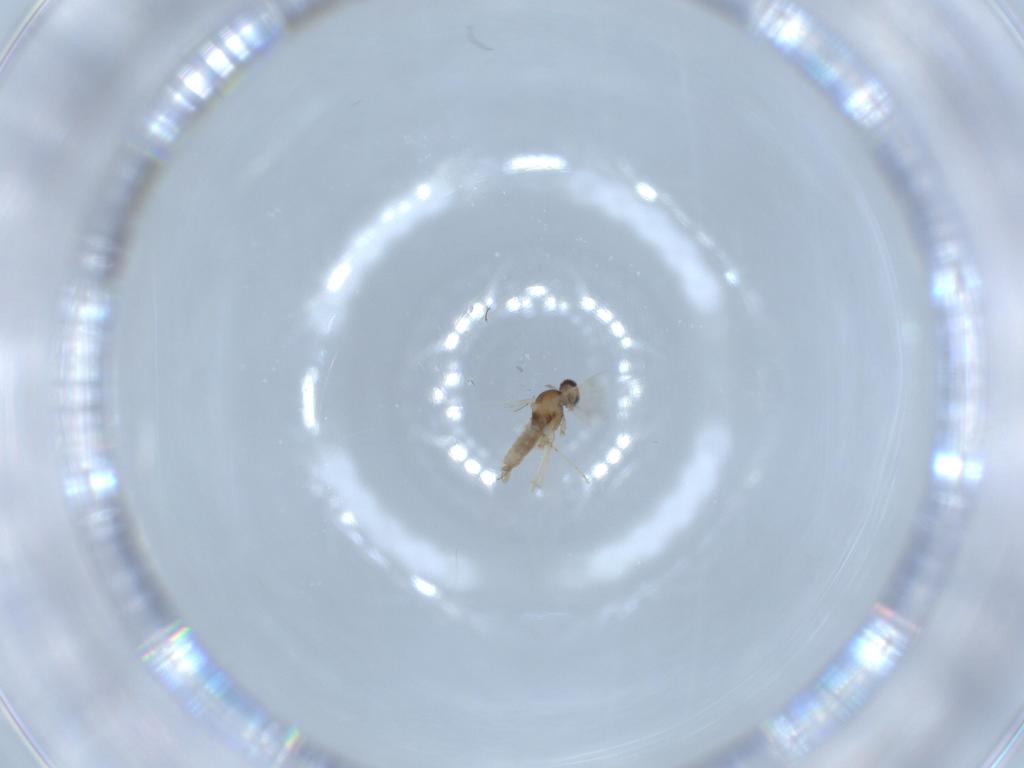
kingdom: Animalia
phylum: Arthropoda
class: Insecta
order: Diptera
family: Cecidomyiidae
